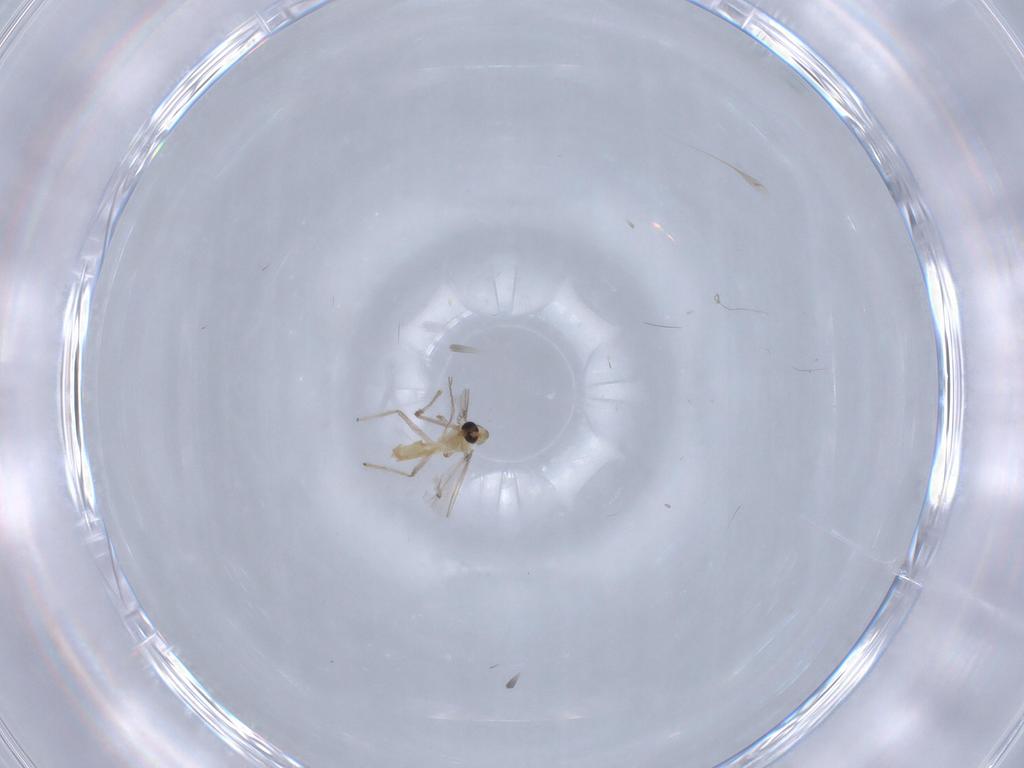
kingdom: Animalia
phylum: Arthropoda
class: Insecta
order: Diptera
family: Chironomidae
